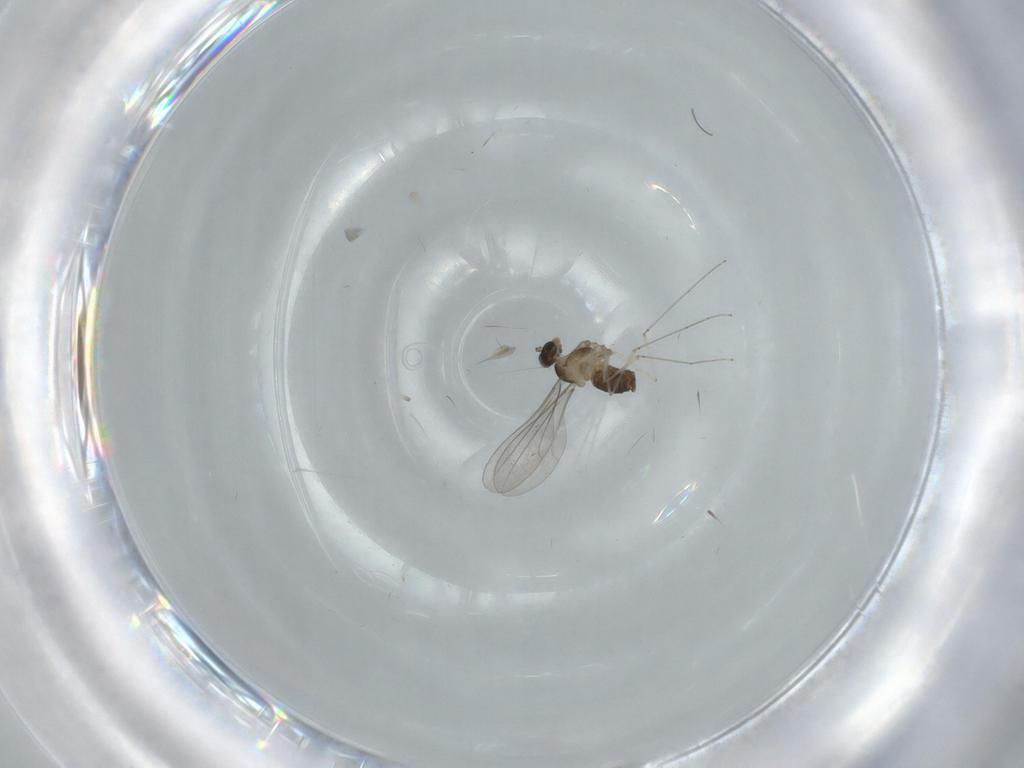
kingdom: Animalia
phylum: Arthropoda
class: Insecta
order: Diptera
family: Cecidomyiidae
